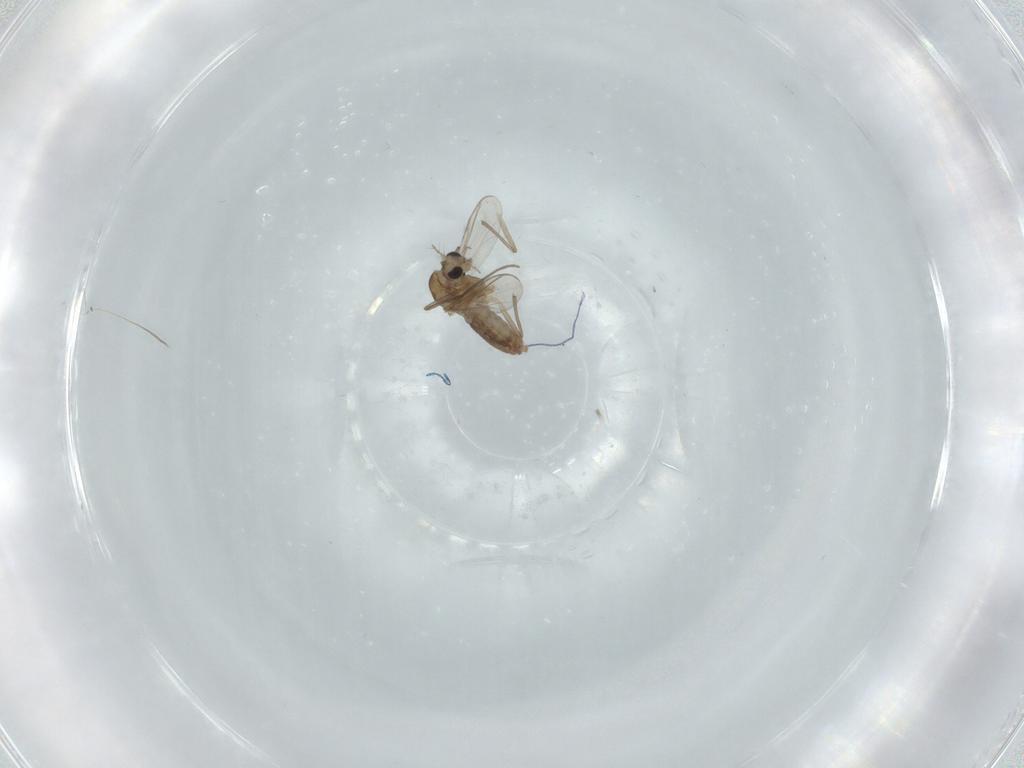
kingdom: Animalia
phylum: Arthropoda
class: Insecta
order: Diptera
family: Chironomidae
